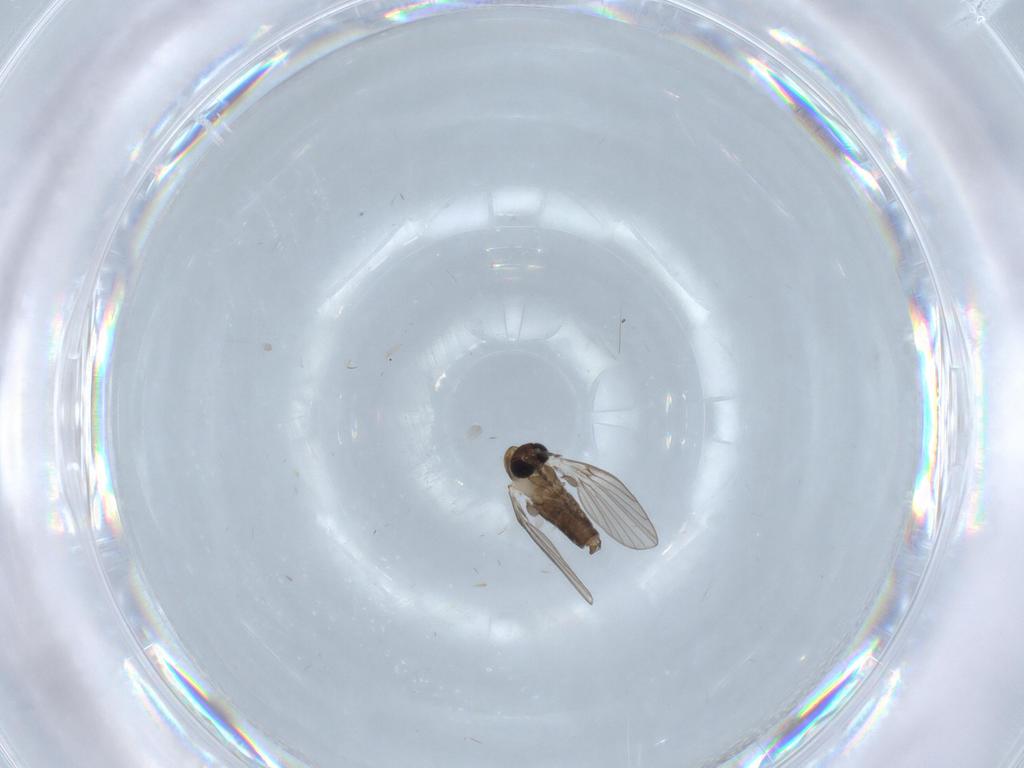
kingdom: Animalia
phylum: Arthropoda
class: Insecta
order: Diptera
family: Psychodidae
